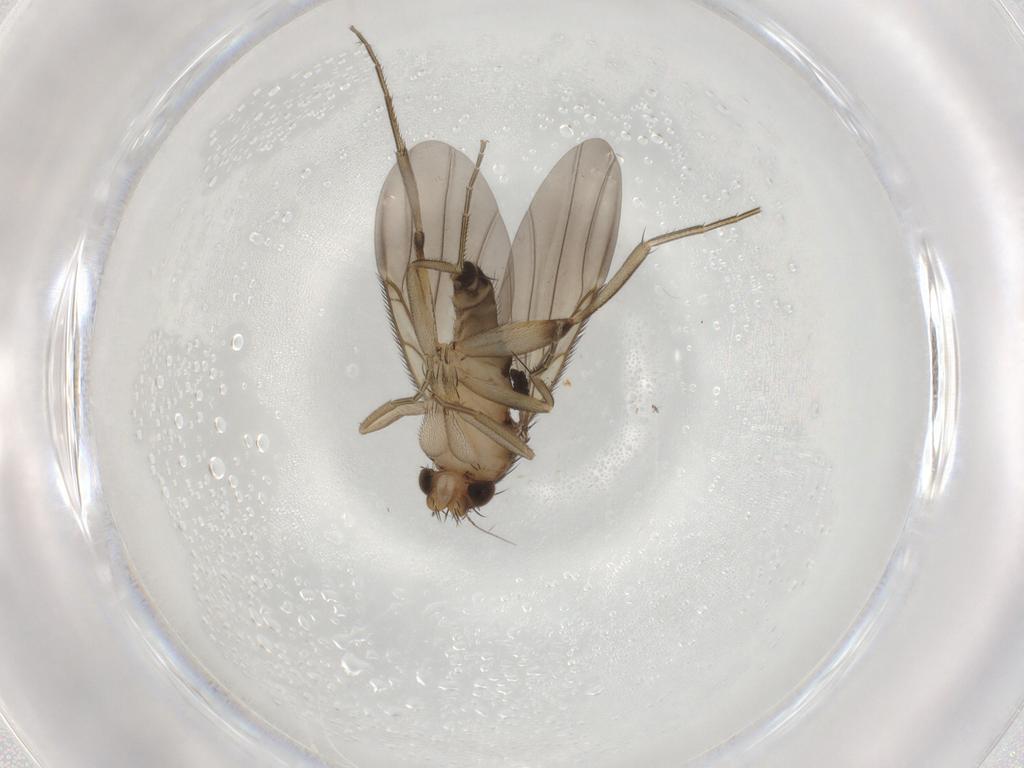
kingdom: Animalia
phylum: Arthropoda
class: Insecta
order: Diptera
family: Phoridae
